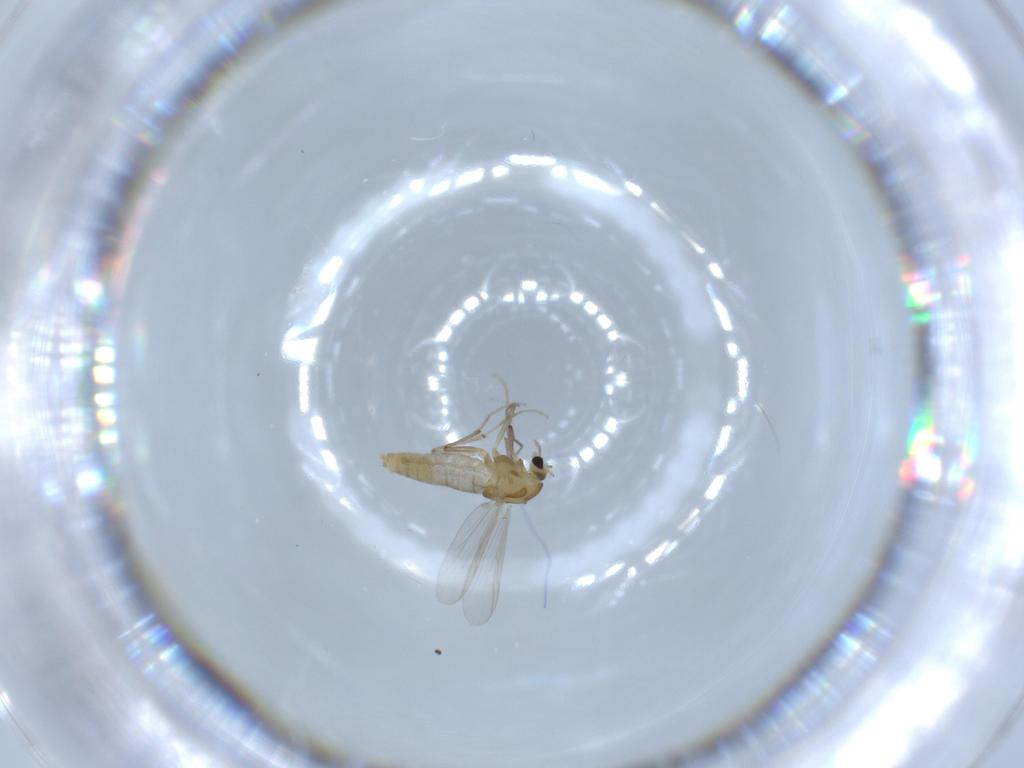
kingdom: Animalia
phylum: Arthropoda
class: Insecta
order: Diptera
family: Chironomidae
